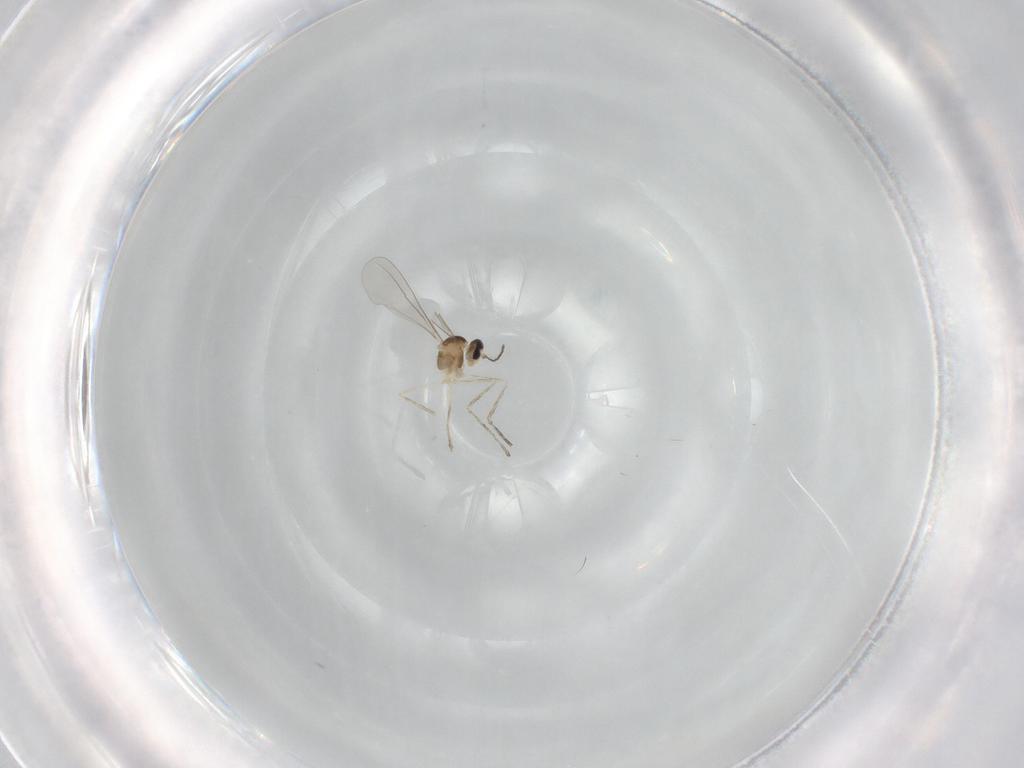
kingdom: Animalia
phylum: Arthropoda
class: Insecta
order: Diptera
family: Cecidomyiidae
